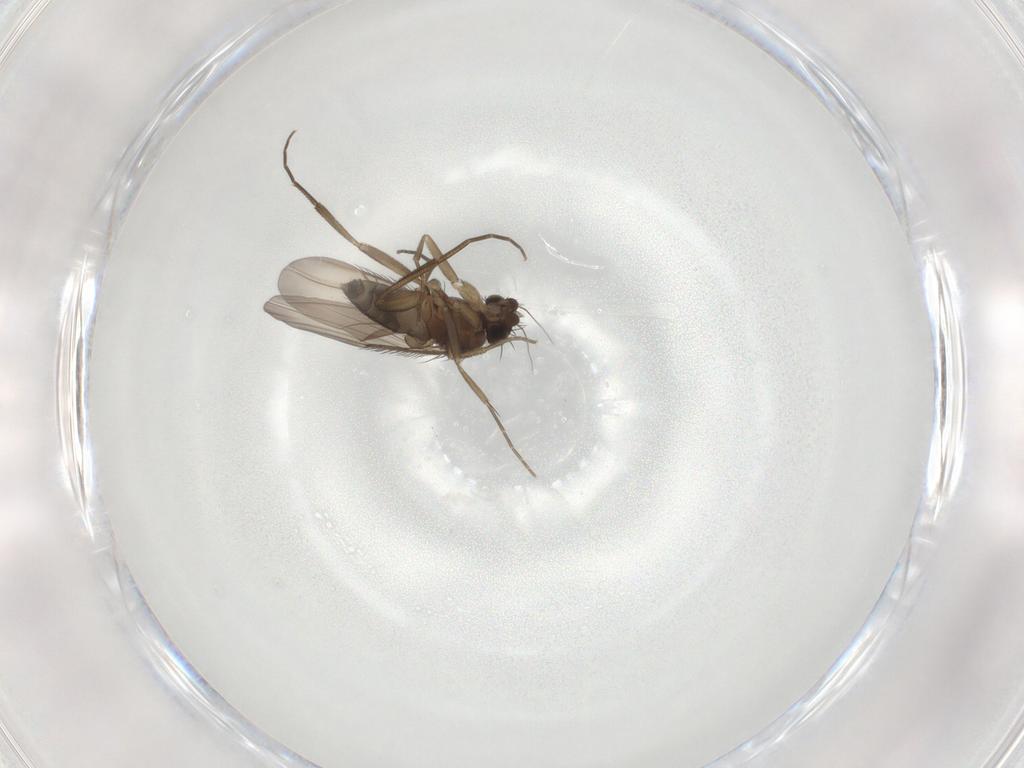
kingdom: Animalia
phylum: Arthropoda
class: Insecta
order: Diptera
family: Phoridae
